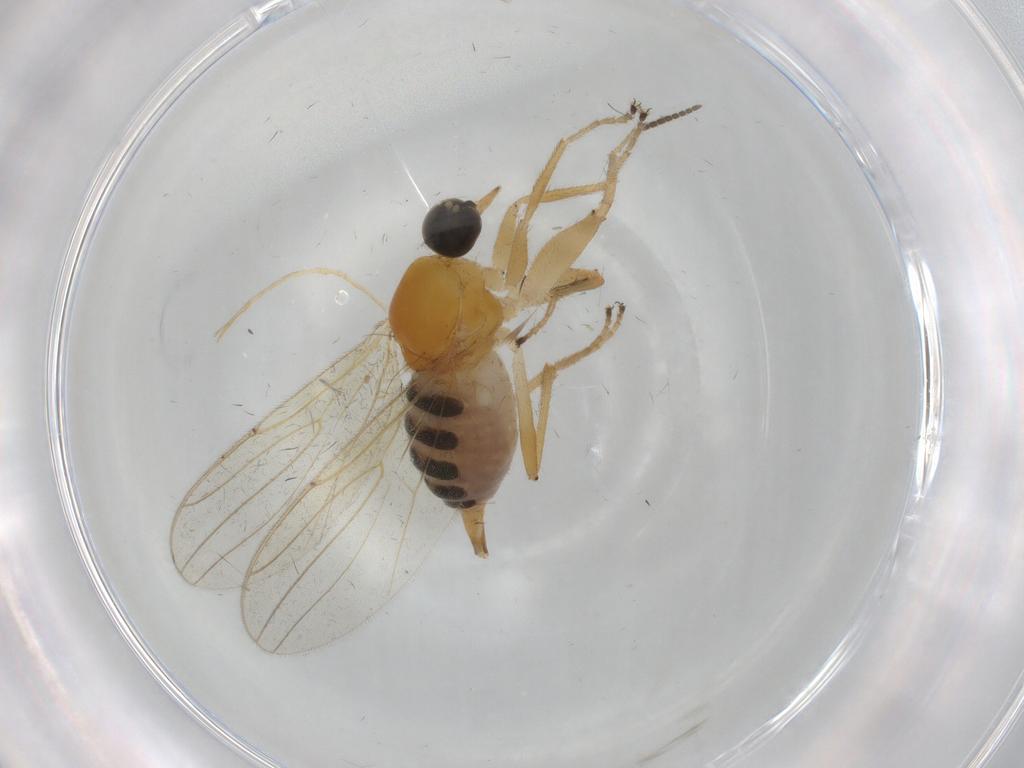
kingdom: Animalia
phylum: Arthropoda
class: Insecta
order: Diptera
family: Hybotidae
